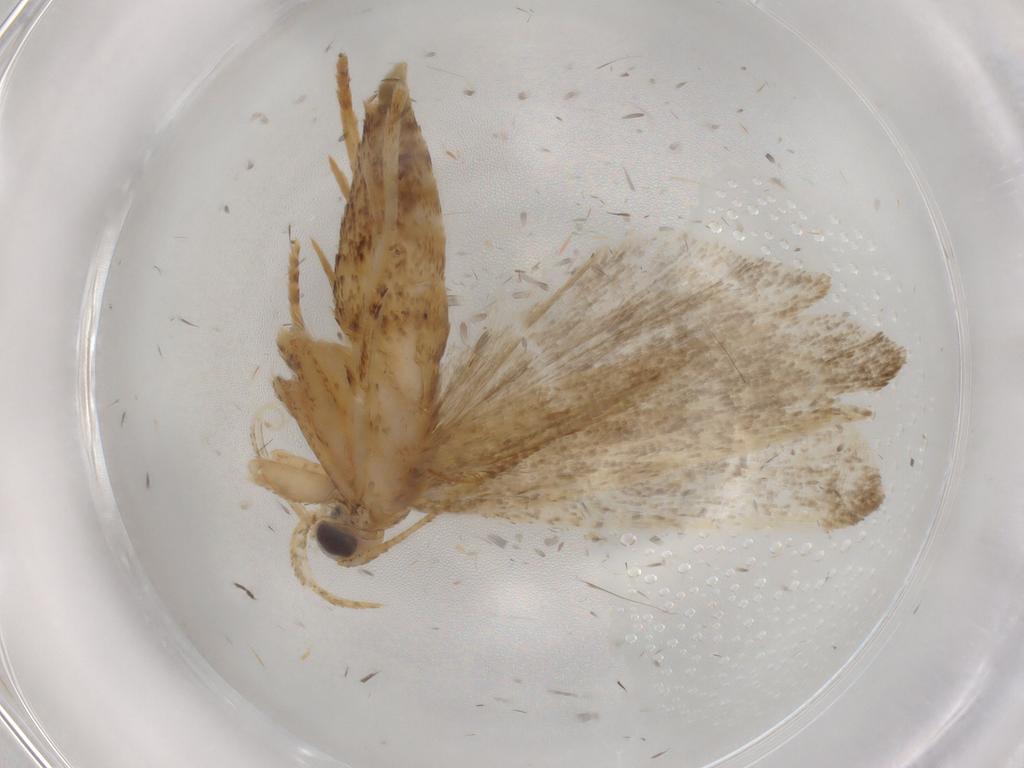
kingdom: Animalia
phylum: Arthropoda
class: Insecta
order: Lepidoptera
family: Autostichidae
